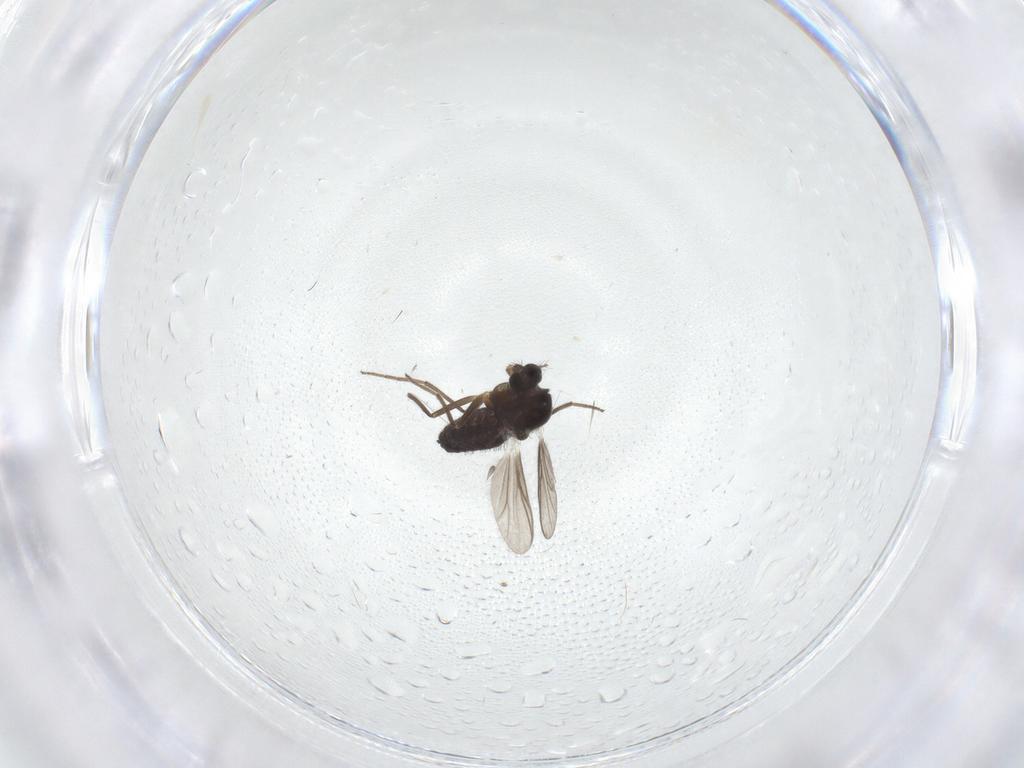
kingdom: Animalia
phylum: Arthropoda
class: Insecta
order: Diptera
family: Chironomidae
